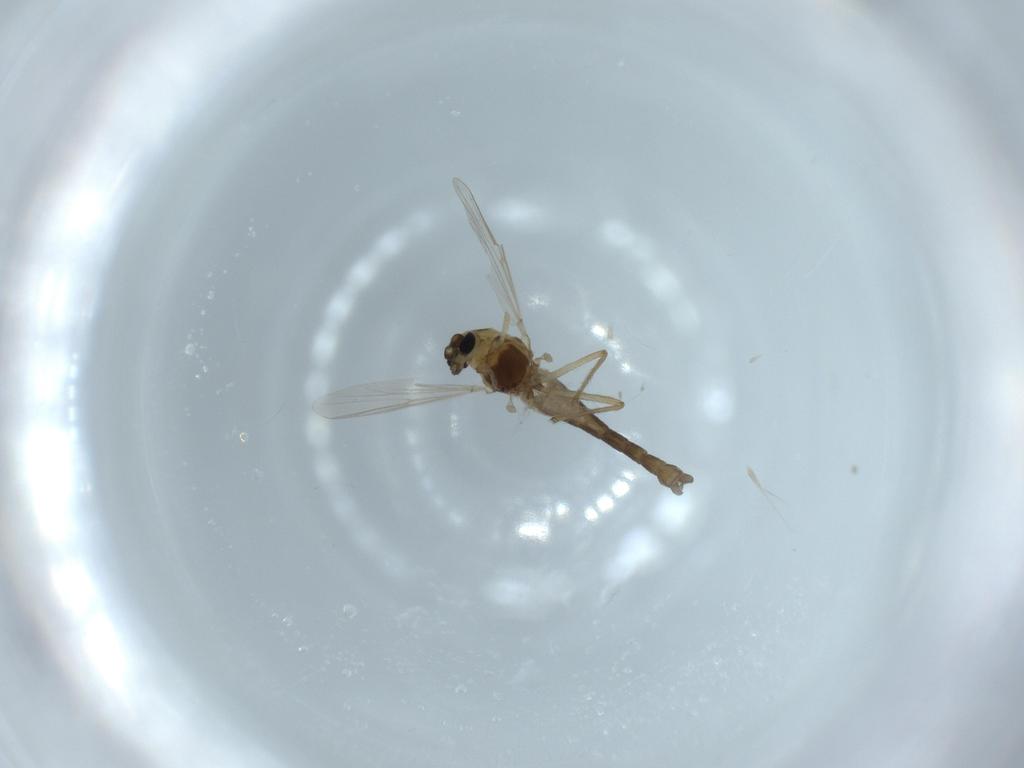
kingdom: Animalia
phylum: Arthropoda
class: Insecta
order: Diptera
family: Chironomidae
